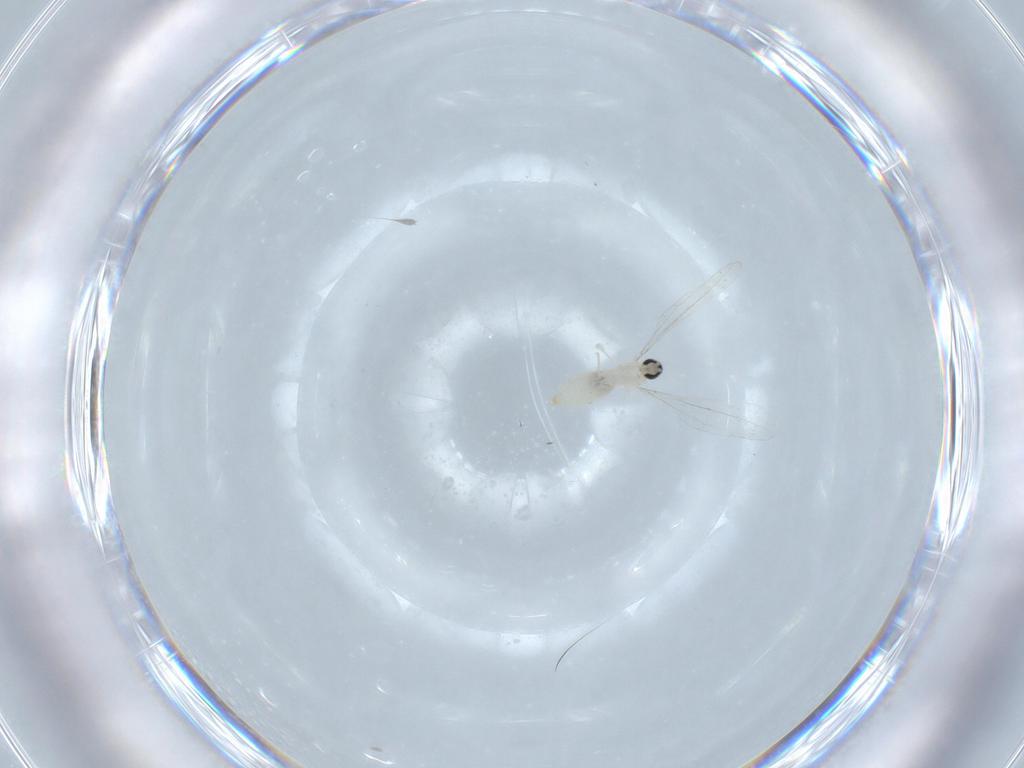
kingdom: Animalia
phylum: Arthropoda
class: Insecta
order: Diptera
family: Cecidomyiidae
